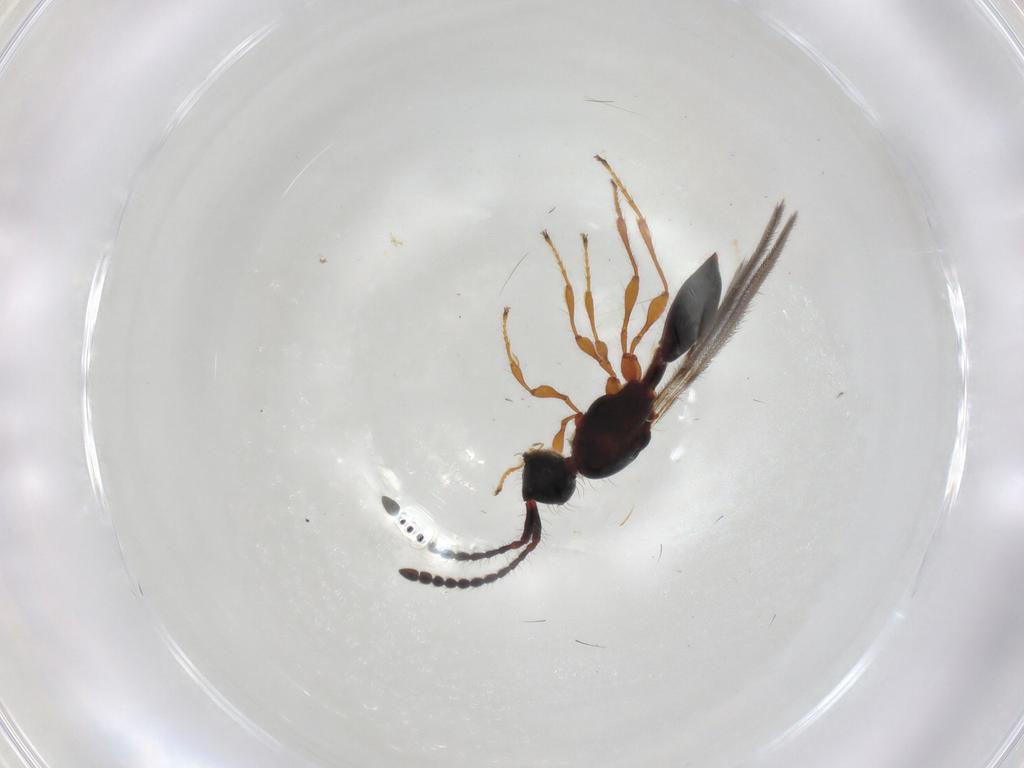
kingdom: Animalia
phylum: Arthropoda
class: Insecta
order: Hymenoptera
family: Diapriidae
